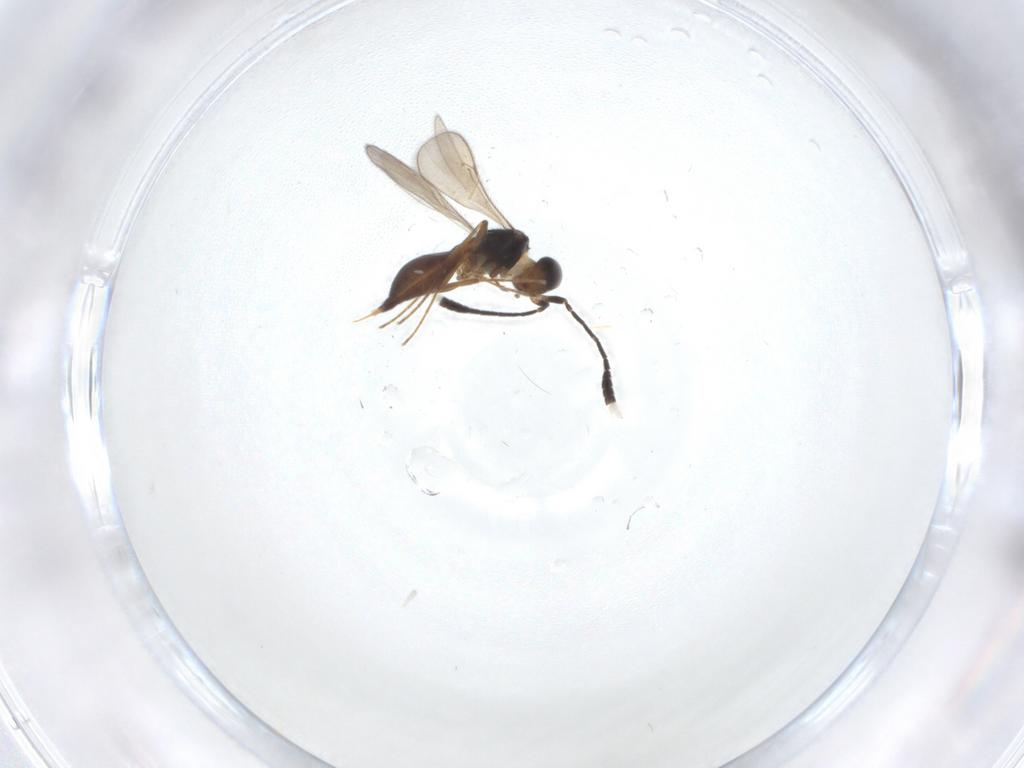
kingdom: Animalia
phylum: Arthropoda
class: Insecta
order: Hymenoptera
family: Scelionidae
